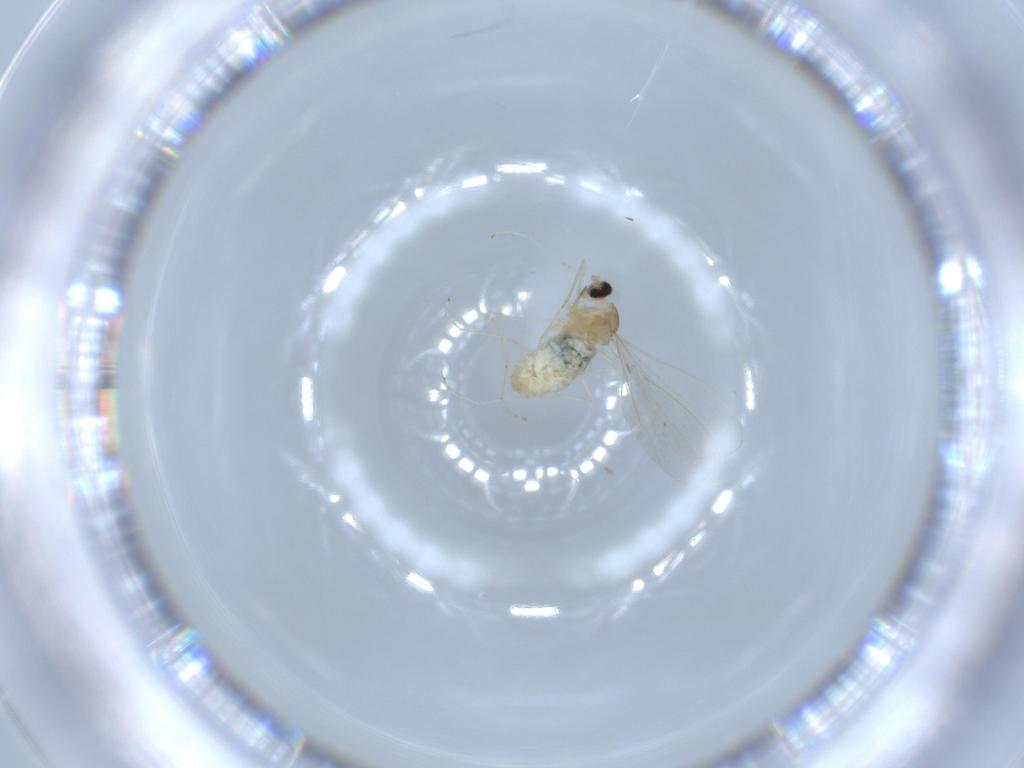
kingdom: Animalia
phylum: Arthropoda
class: Insecta
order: Diptera
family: Cecidomyiidae
